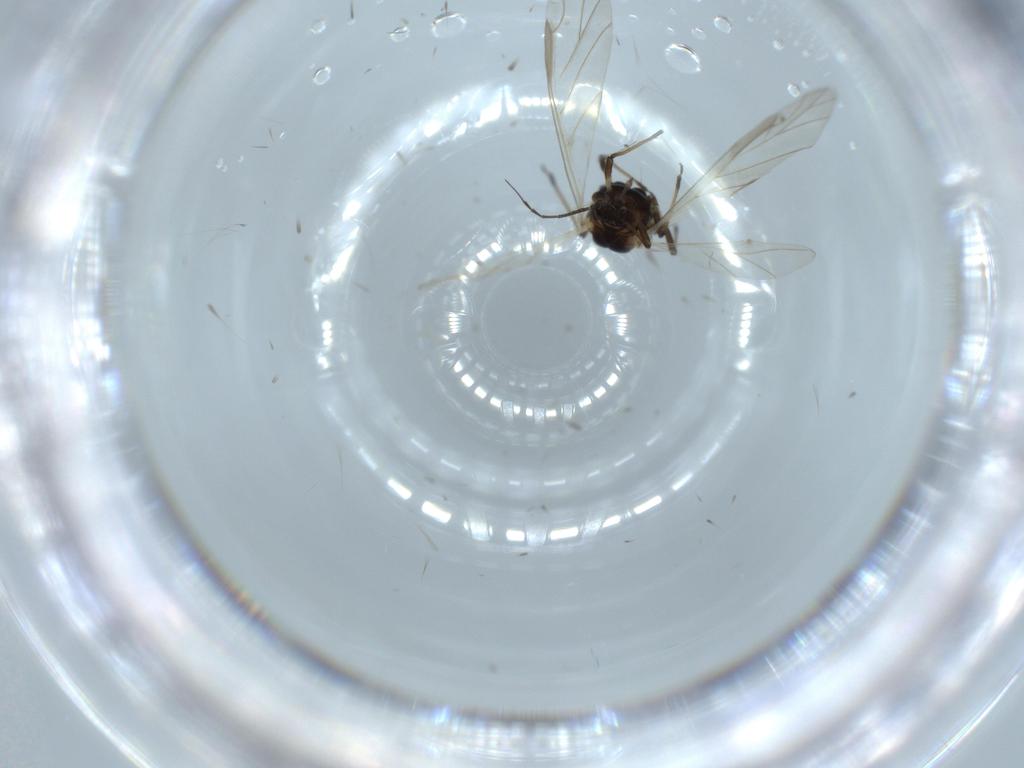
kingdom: Animalia
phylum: Arthropoda
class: Insecta
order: Hemiptera
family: Aphididae
